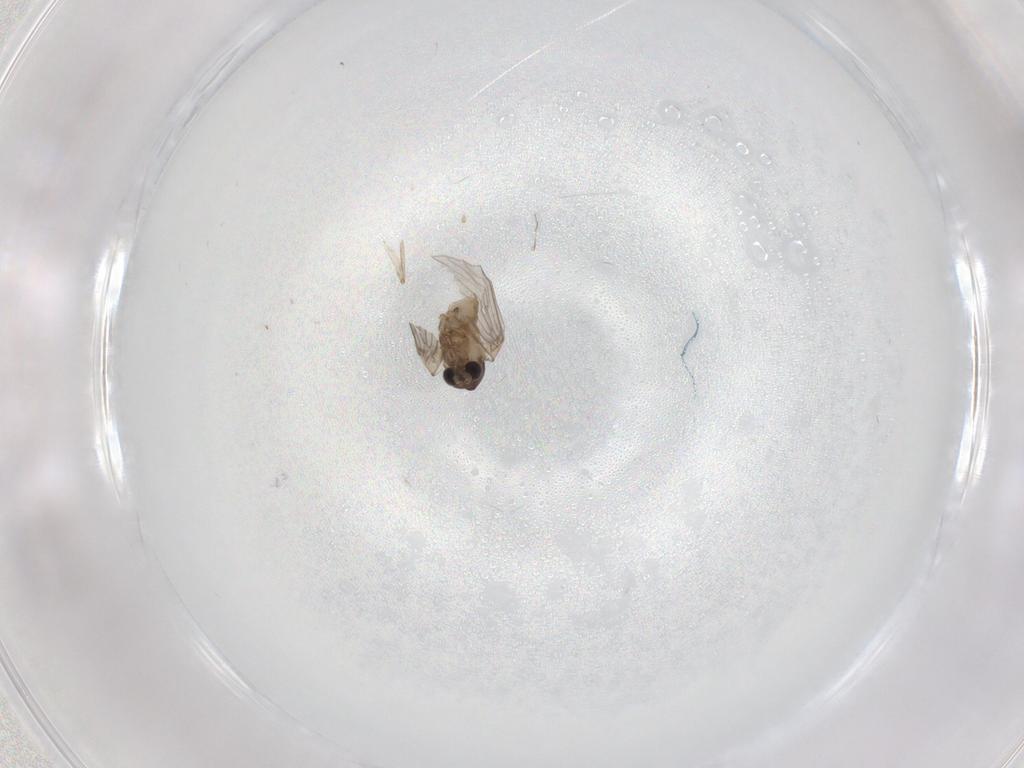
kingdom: Animalia
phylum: Arthropoda
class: Insecta
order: Diptera
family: Psychodidae
